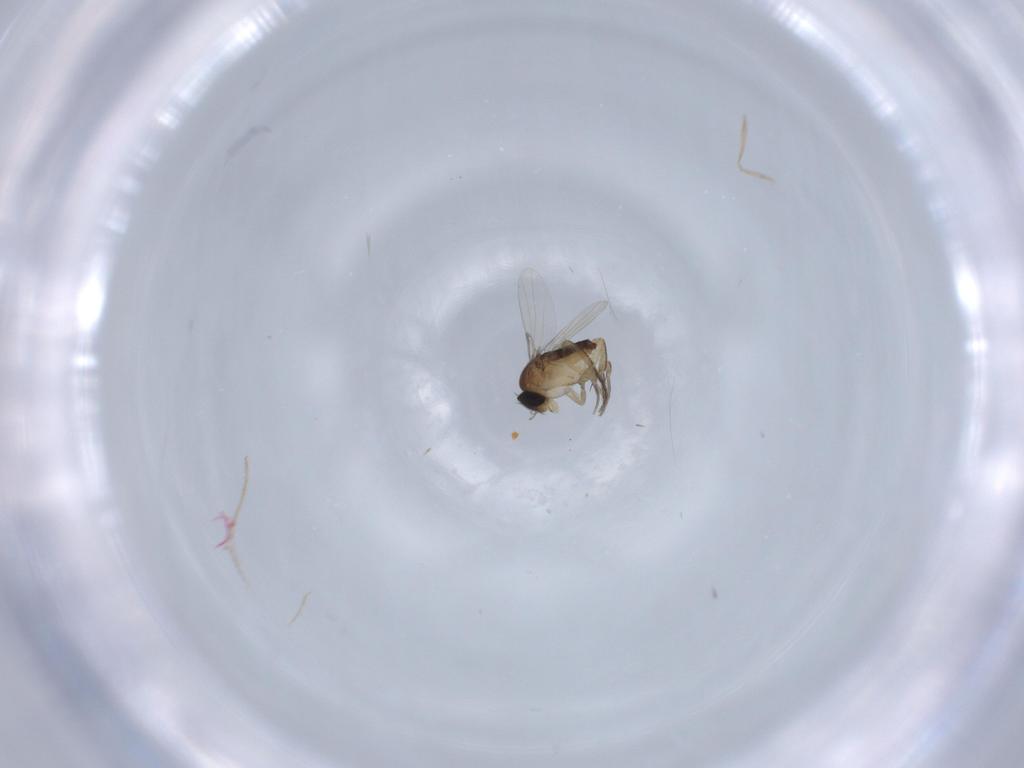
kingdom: Animalia
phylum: Arthropoda
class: Insecta
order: Diptera
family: Phoridae
